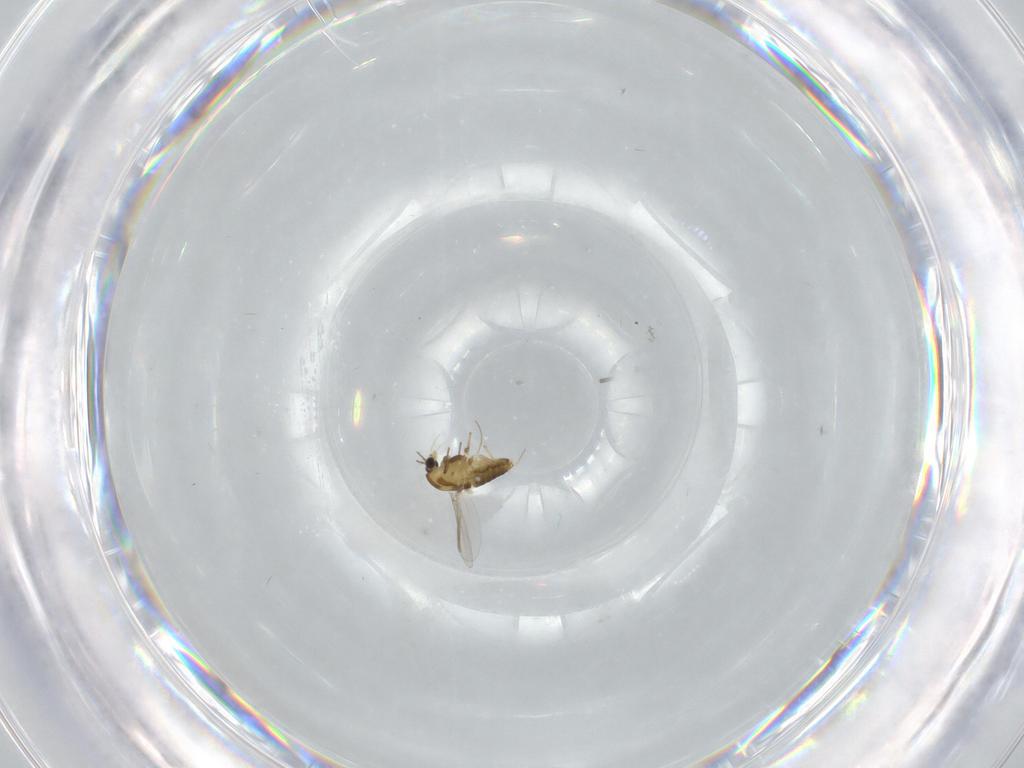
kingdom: Animalia
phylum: Arthropoda
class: Insecta
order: Diptera
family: Chironomidae
